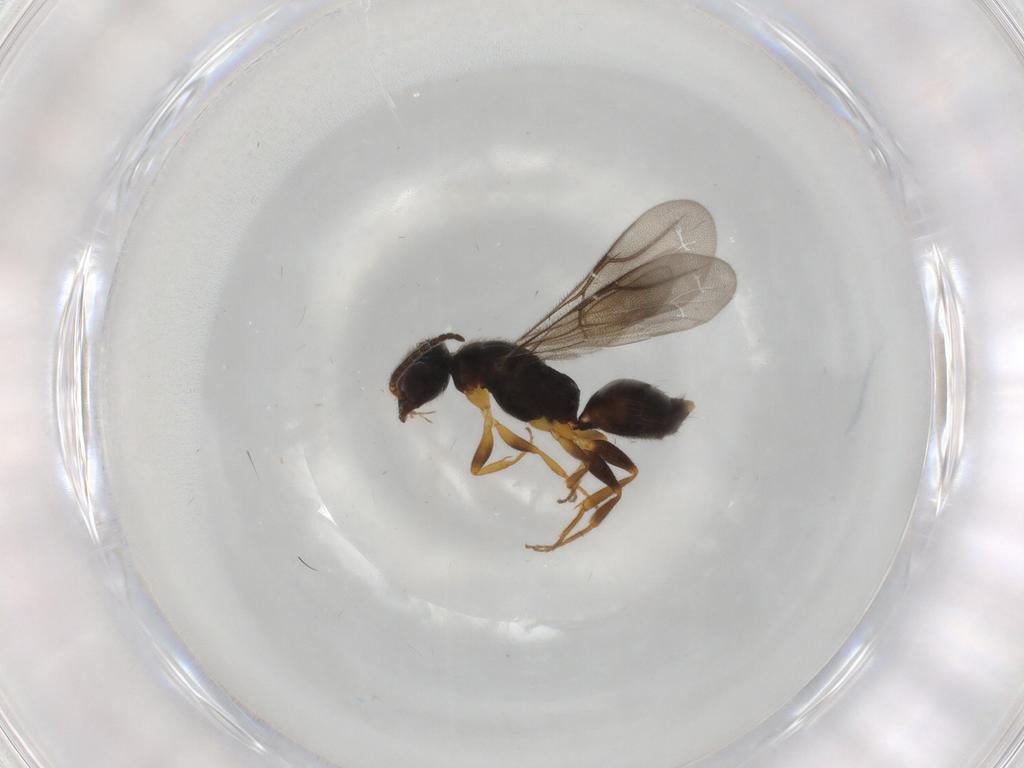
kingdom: Animalia
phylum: Arthropoda
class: Insecta
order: Hymenoptera
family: Bethylidae
